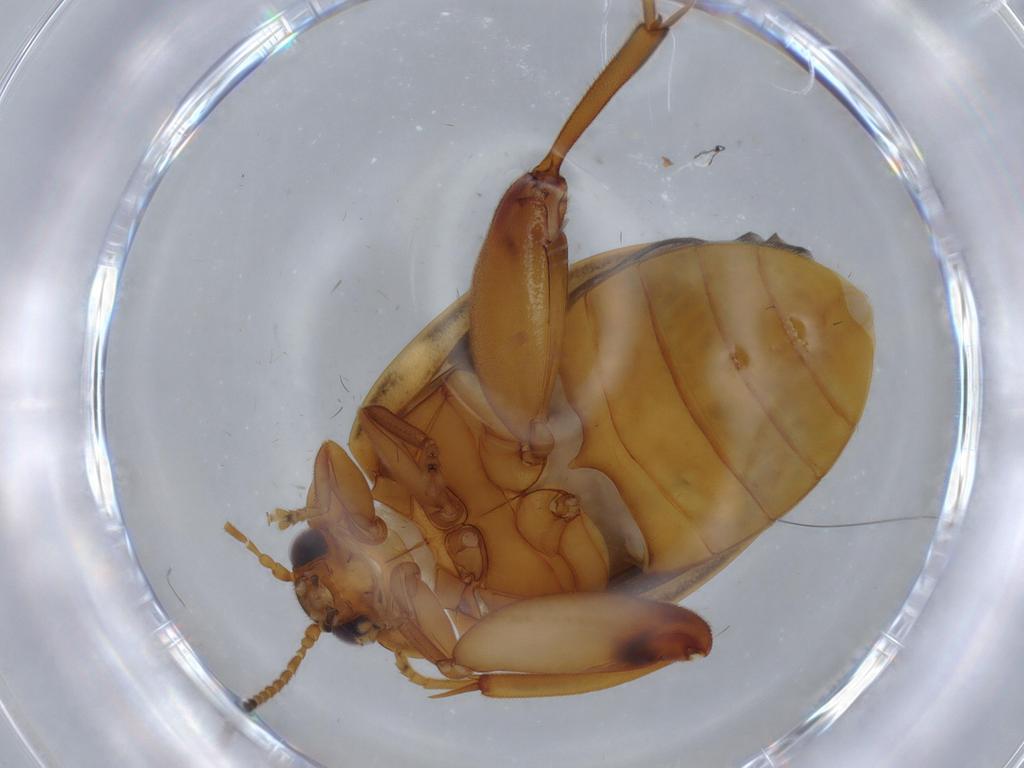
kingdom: Animalia
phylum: Arthropoda
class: Insecta
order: Coleoptera
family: Scirtidae
